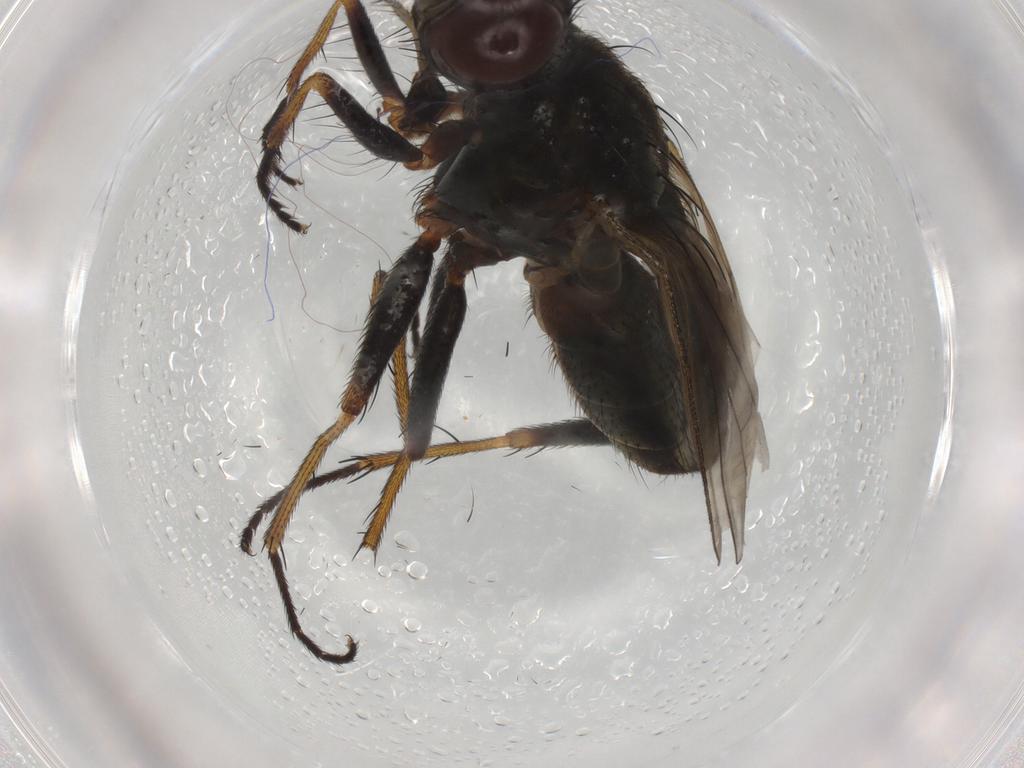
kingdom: Animalia
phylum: Arthropoda
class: Insecta
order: Diptera
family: Muscidae
